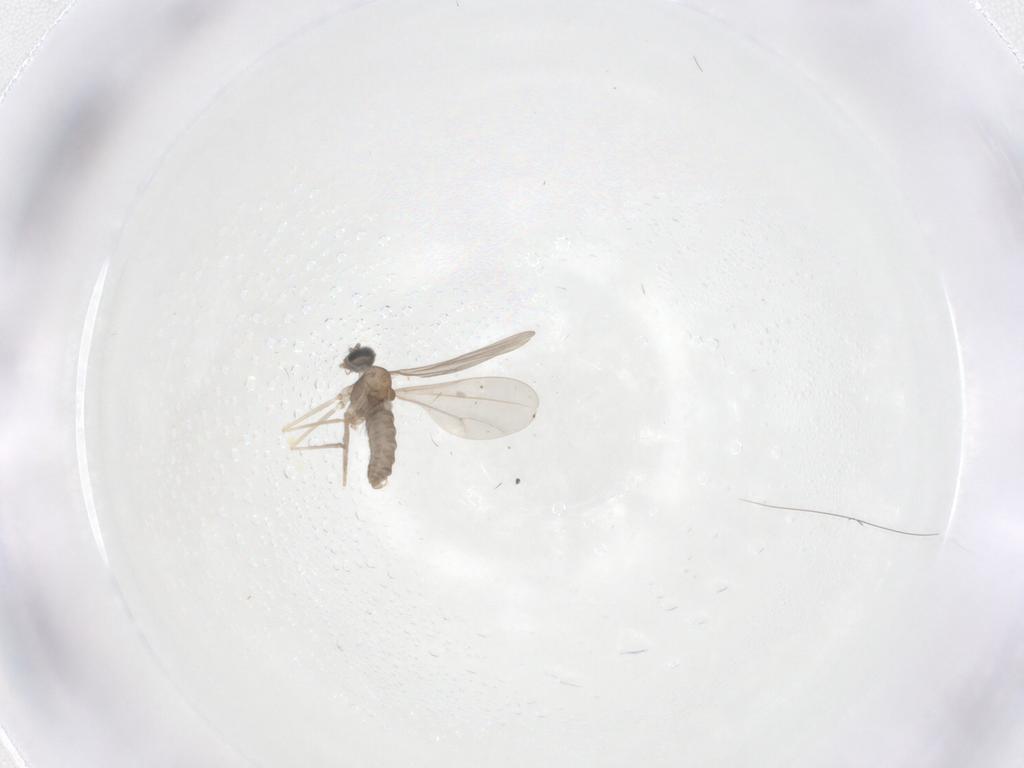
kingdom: Animalia
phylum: Arthropoda
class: Insecta
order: Diptera
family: Cecidomyiidae
